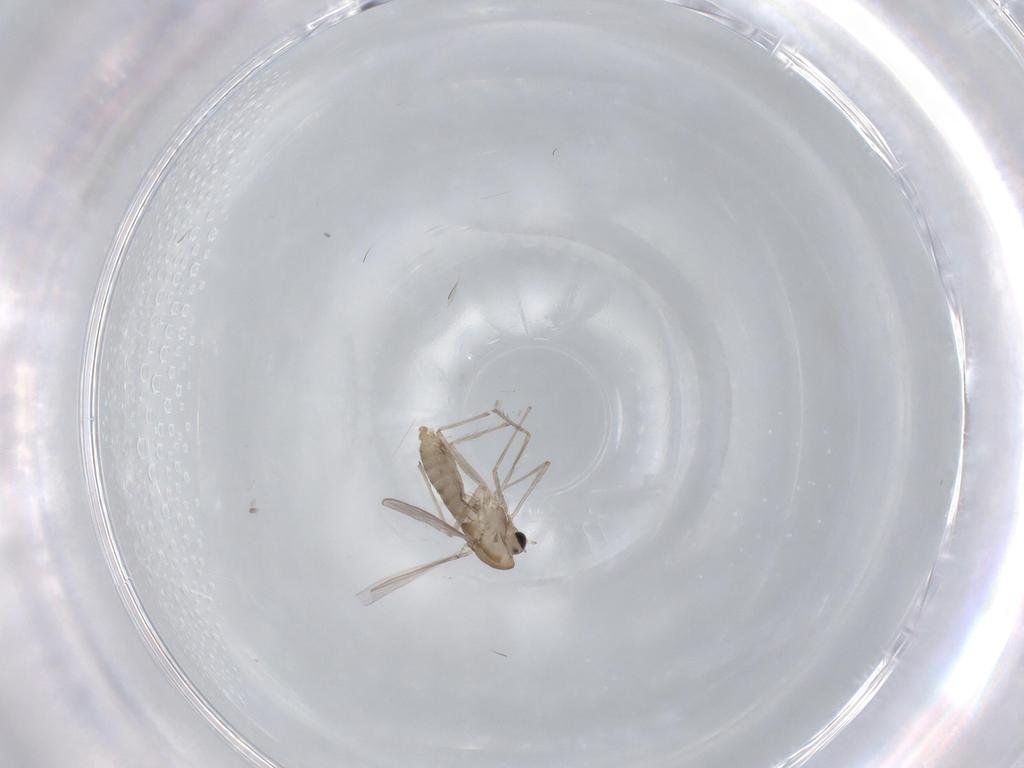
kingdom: Animalia
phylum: Arthropoda
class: Insecta
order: Diptera
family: Chironomidae
